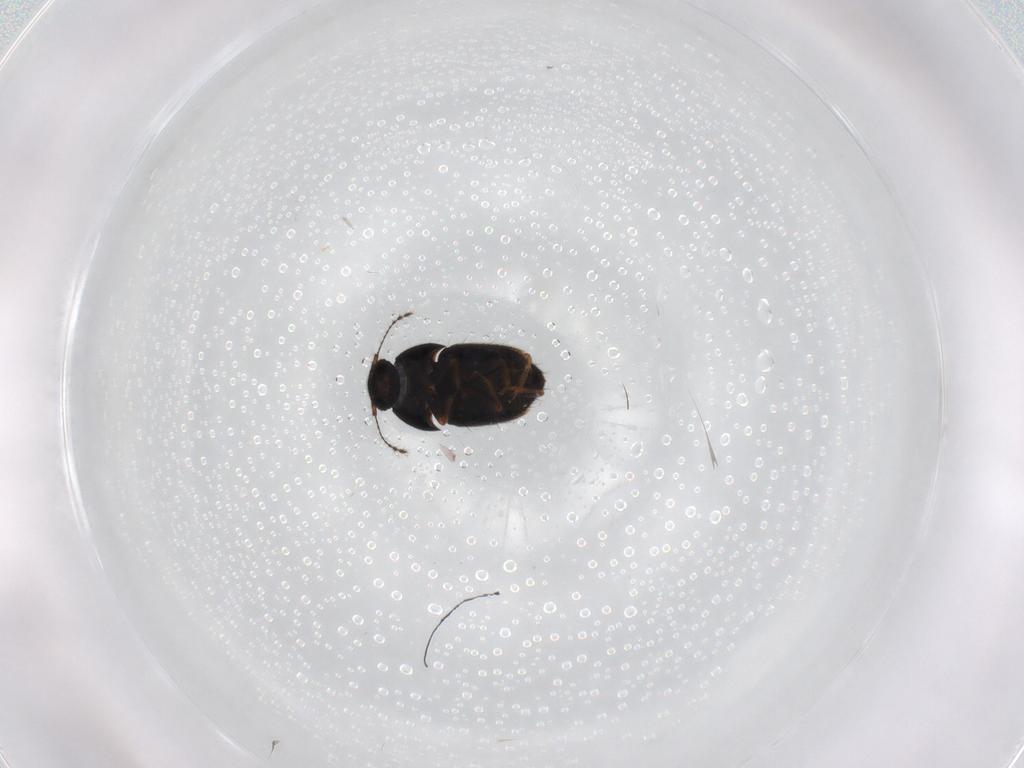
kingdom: Animalia
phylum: Arthropoda
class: Insecta
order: Coleoptera
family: Ptiliidae
